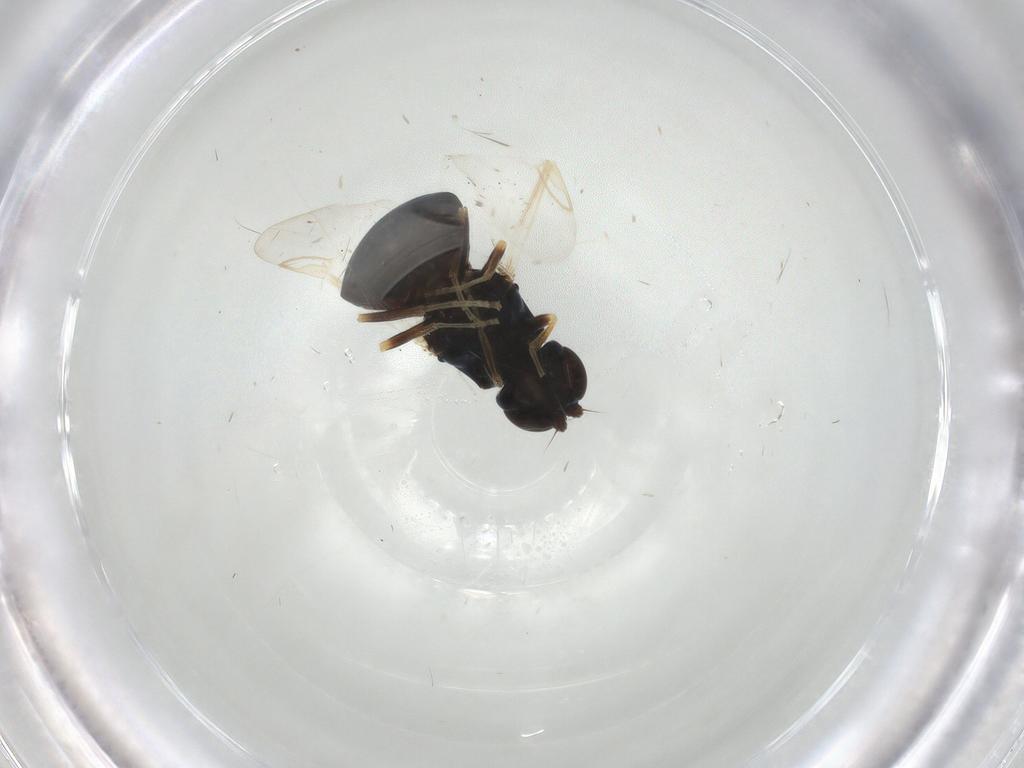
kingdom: Animalia
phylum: Arthropoda
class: Insecta
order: Diptera
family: Stratiomyidae
